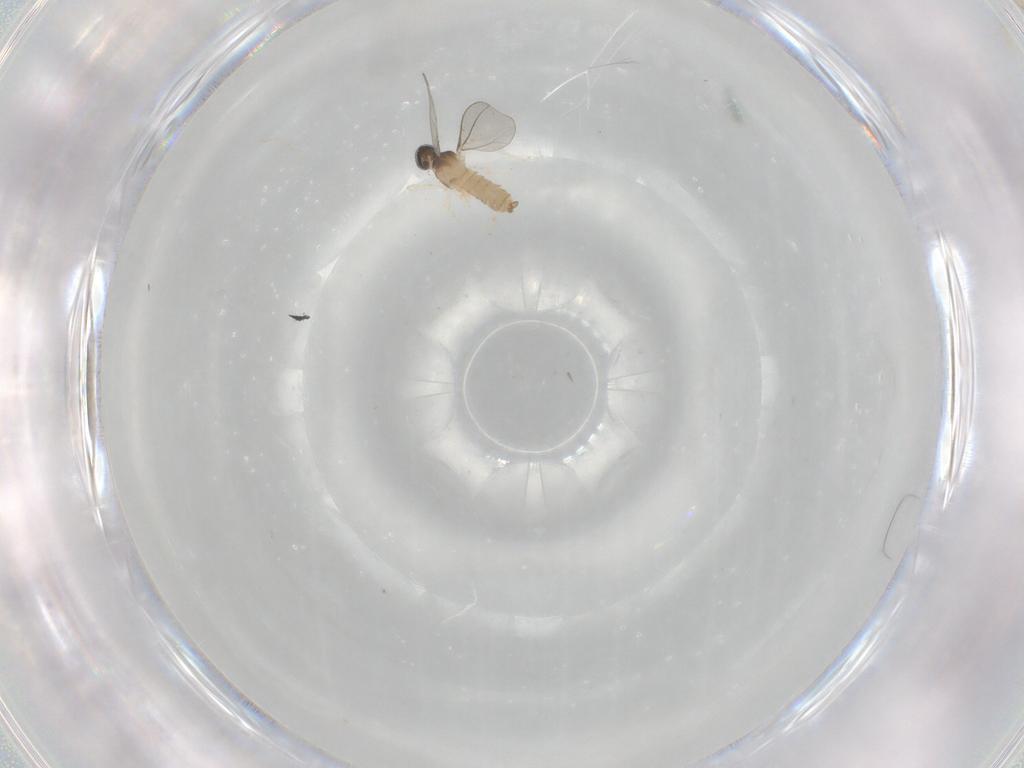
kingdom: Animalia
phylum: Arthropoda
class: Insecta
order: Diptera
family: Cecidomyiidae
